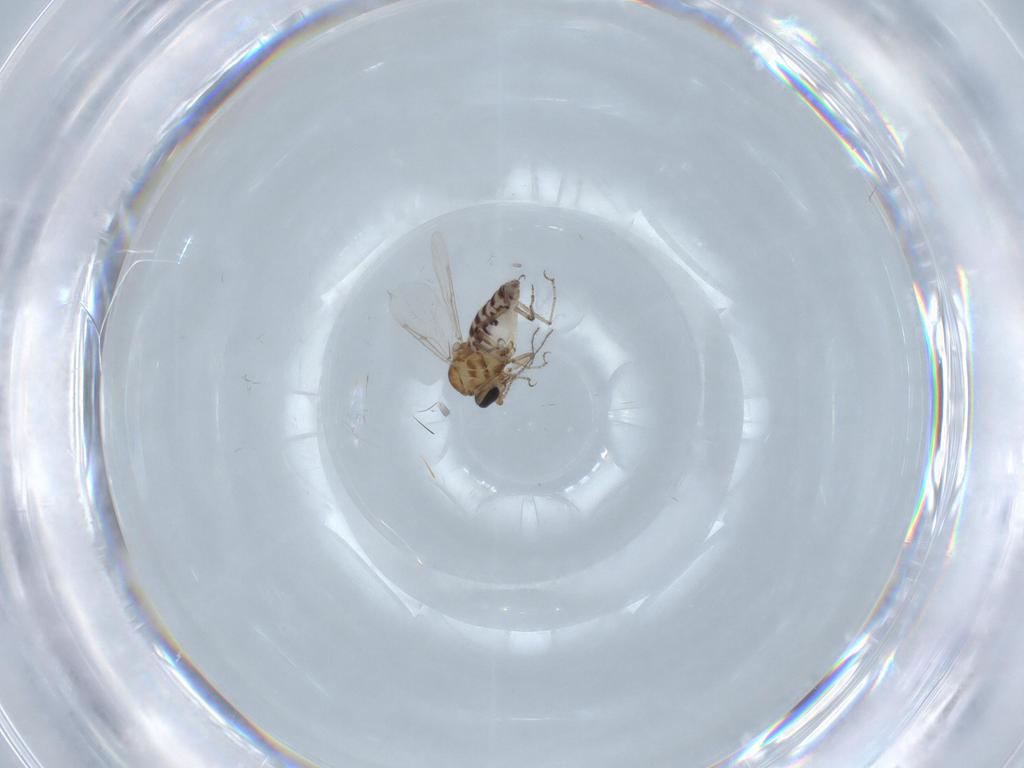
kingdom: Animalia
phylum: Arthropoda
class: Insecta
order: Diptera
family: Ceratopogonidae
